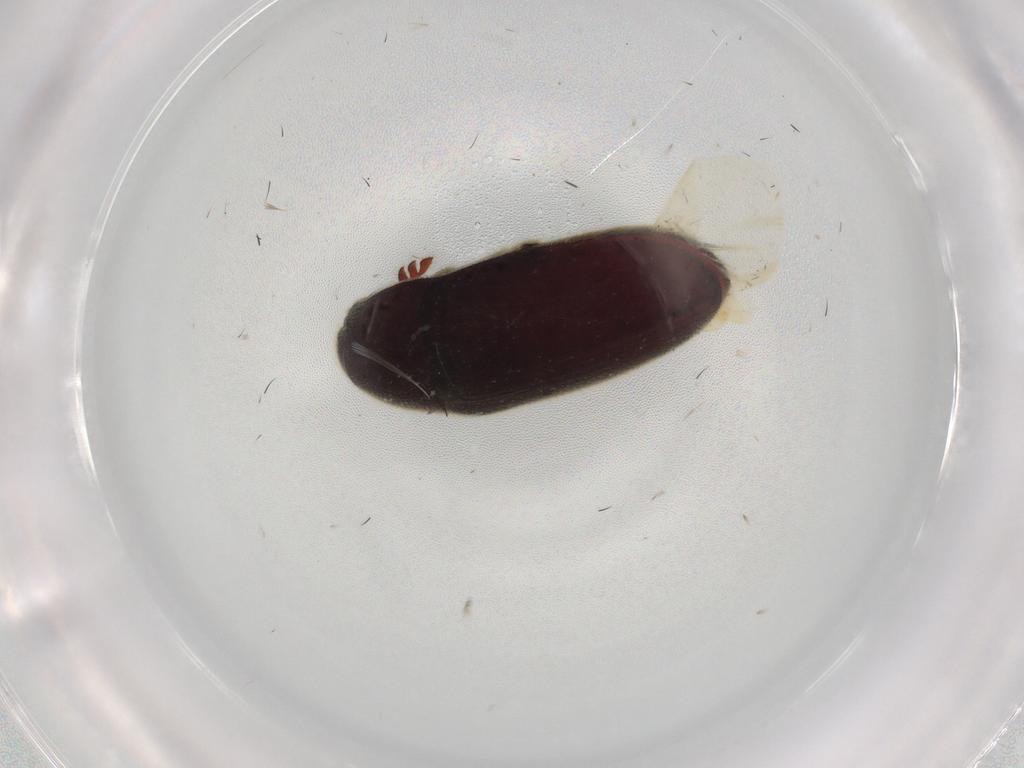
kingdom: Animalia
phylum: Arthropoda
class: Insecta
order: Coleoptera
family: Throscidae
